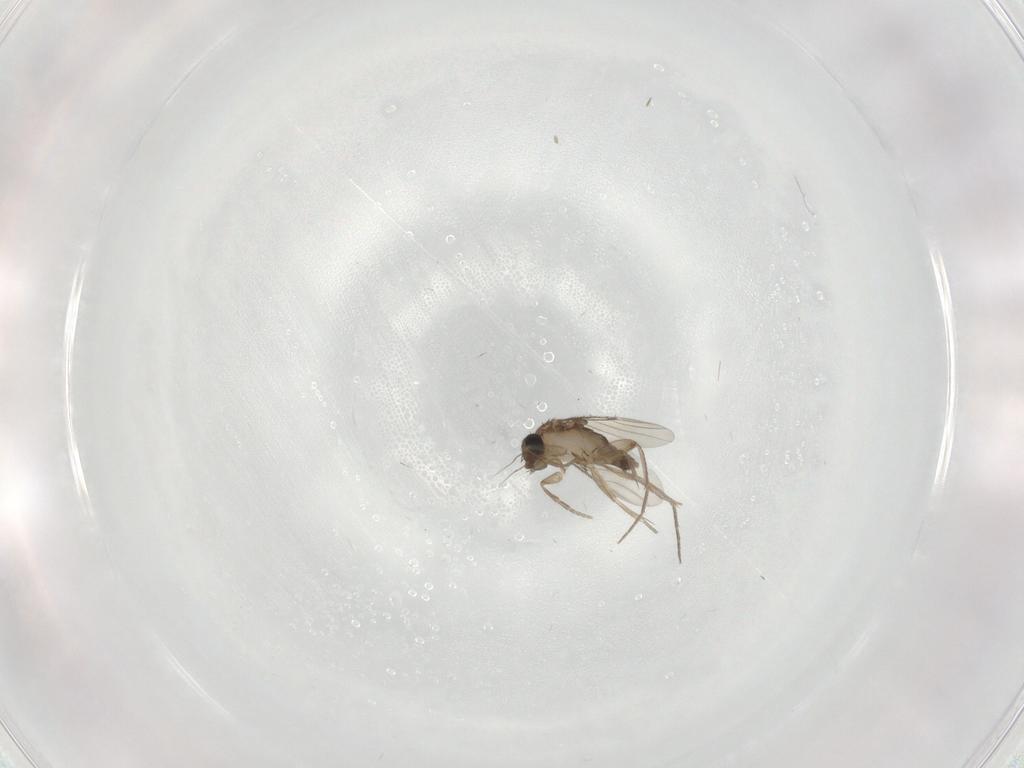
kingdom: Animalia
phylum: Arthropoda
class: Insecta
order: Diptera
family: Phoridae
